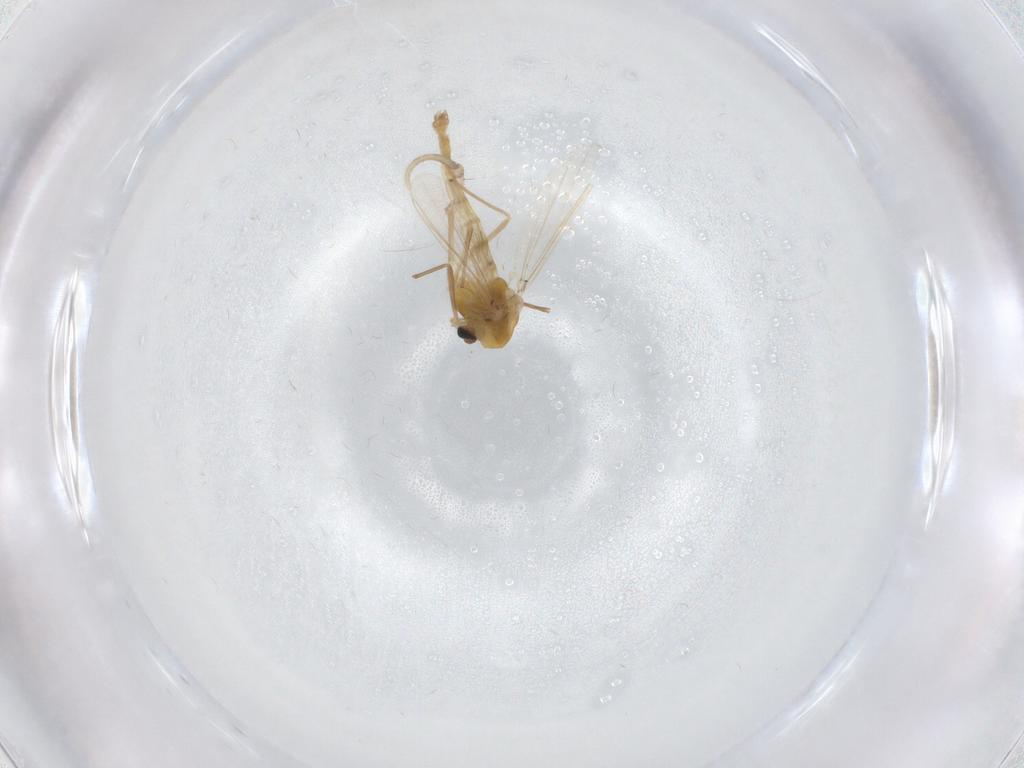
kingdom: Animalia
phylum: Arthropoda
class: Insecta
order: Diptera
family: Chironomidae
